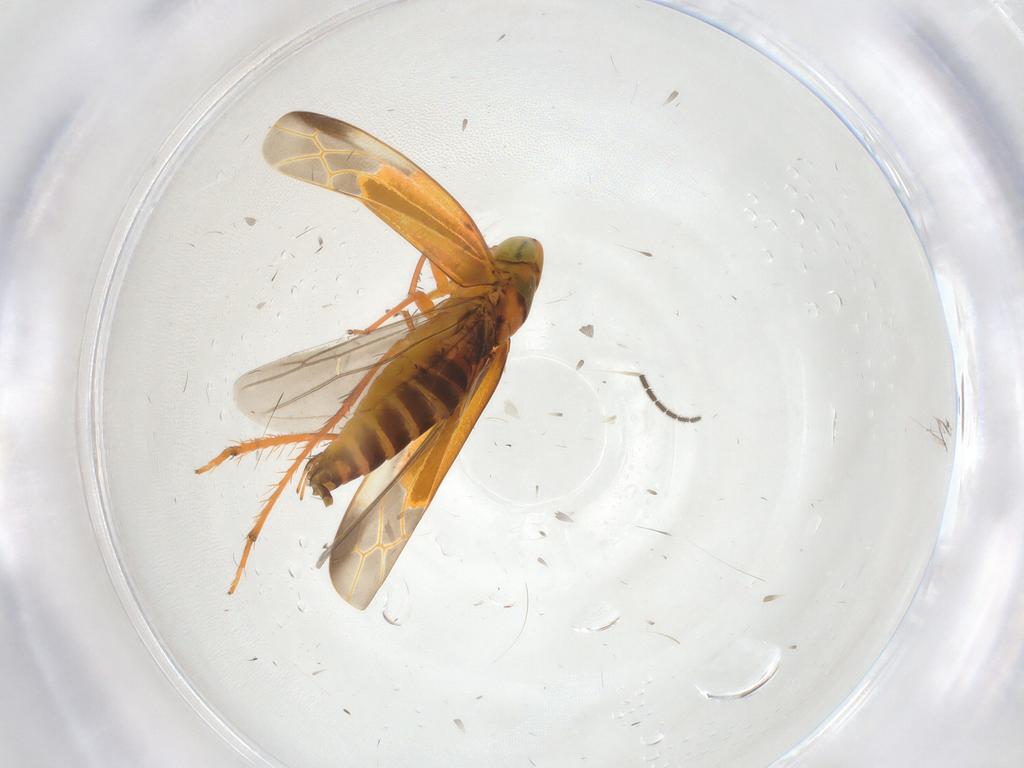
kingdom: Animalia
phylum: Arthropoda
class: Insecta
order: Hemiptera
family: Cicadellidae
